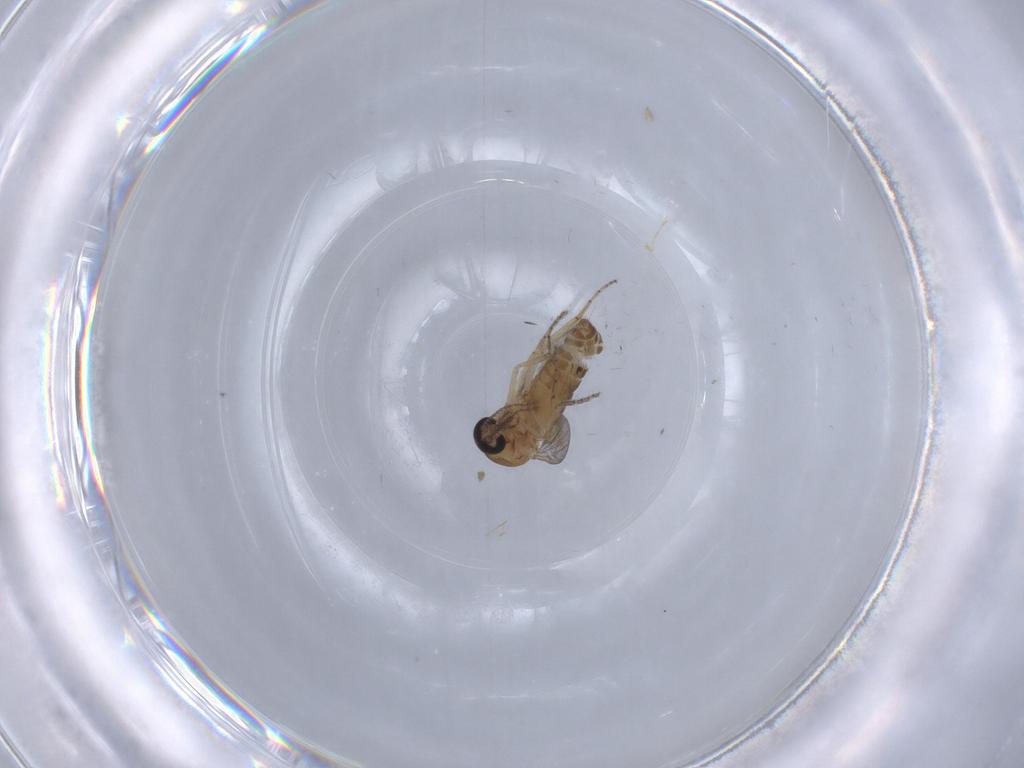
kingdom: Animalia
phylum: Arthropoda
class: Insecta
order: Diptera
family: Ceratopogonidae
